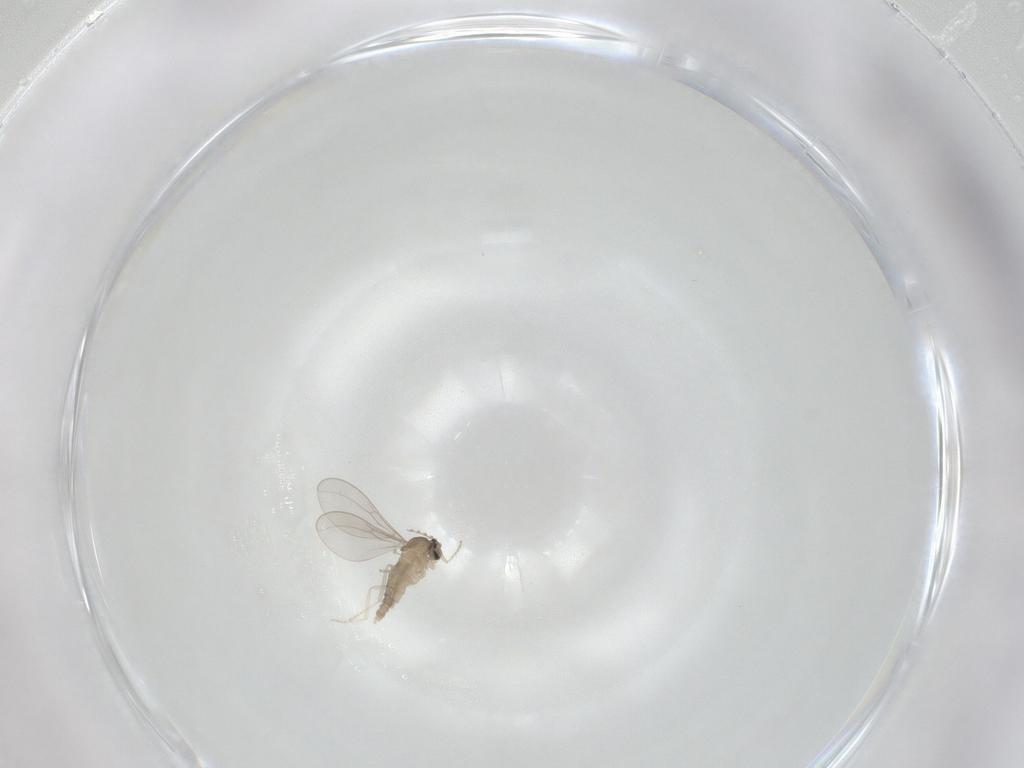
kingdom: Animalia
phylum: Arthropoda
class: Insecta
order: Diptera
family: Cecidomyiidae
